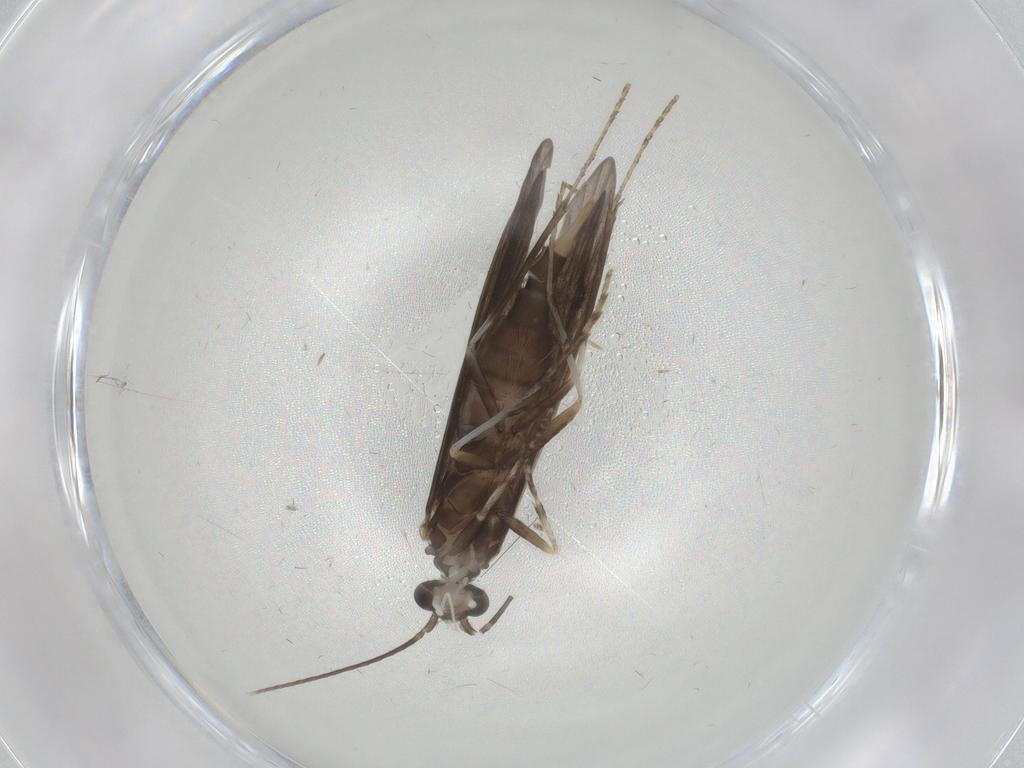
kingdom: Animalia
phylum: Arthropoda
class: Insecta
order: Trichoptera
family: Xiphocentronidae
